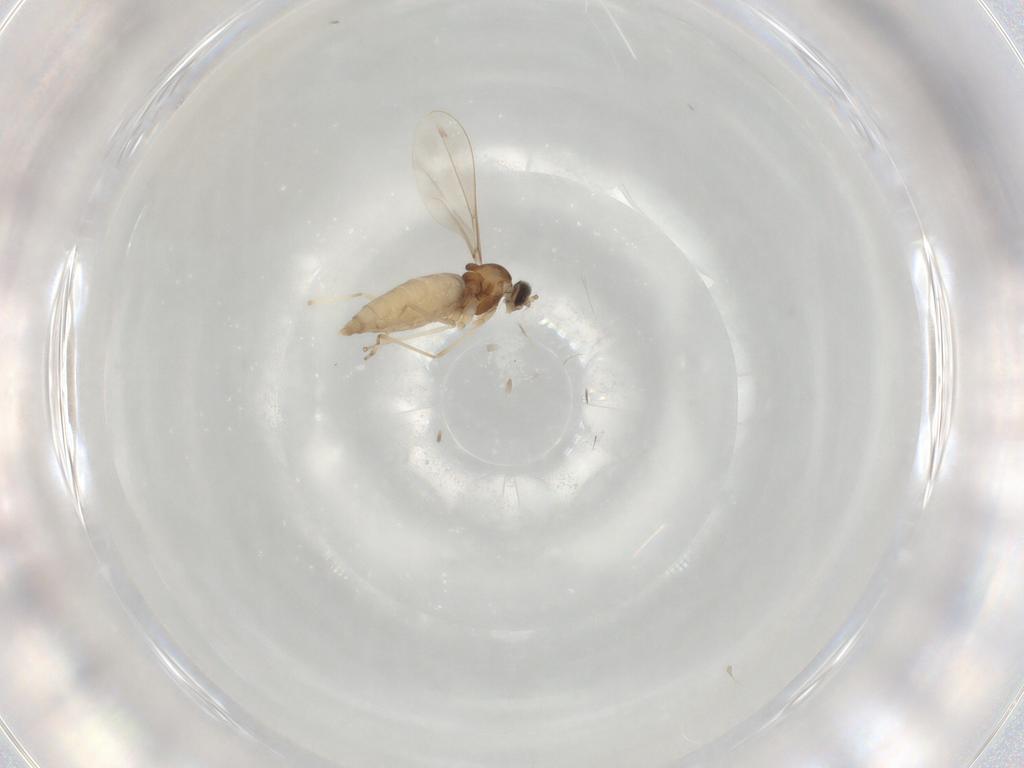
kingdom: Animalia
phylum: Arthropoda
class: Insecta
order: Diptera
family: Cecidomyiidae
